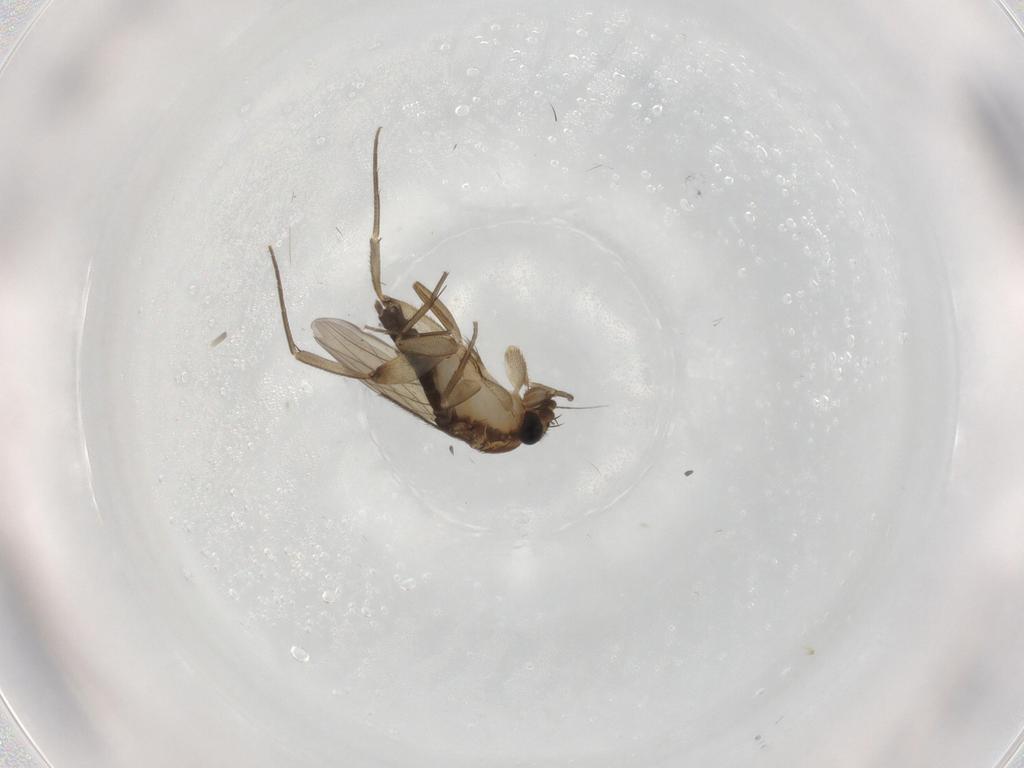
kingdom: Animalia
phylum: Arthropoda
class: Insecta
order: Diptera
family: Phoridae
